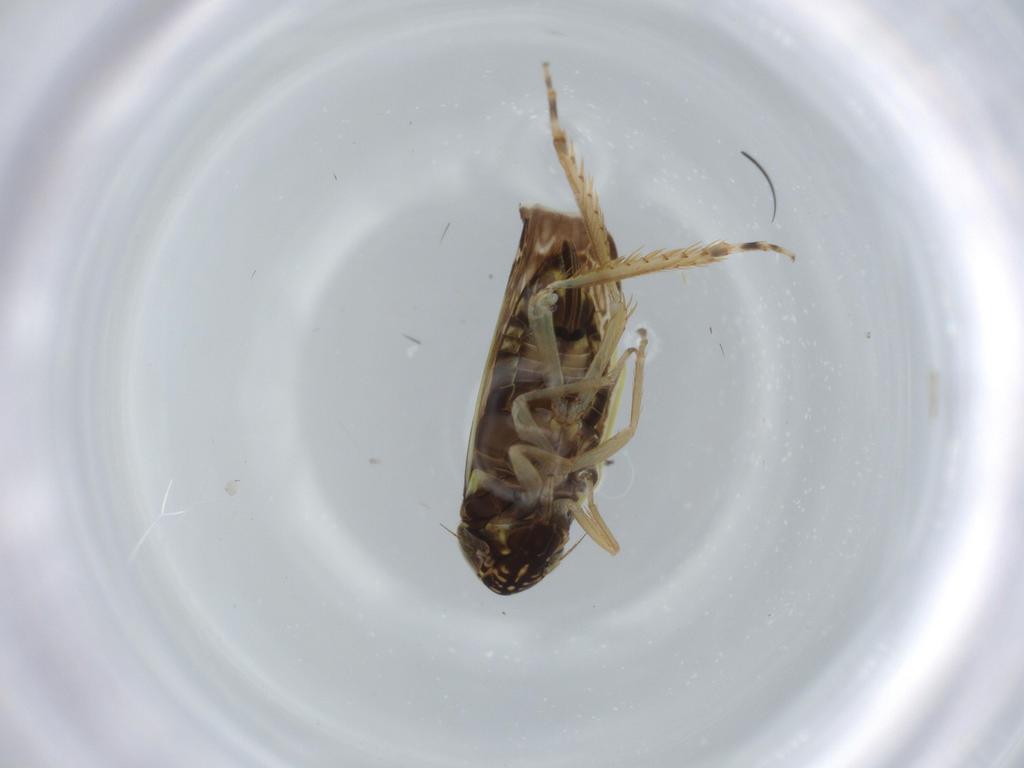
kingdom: Animalia
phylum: Arthropoda
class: Insecta
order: Hemiptera
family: Cicadellidae
